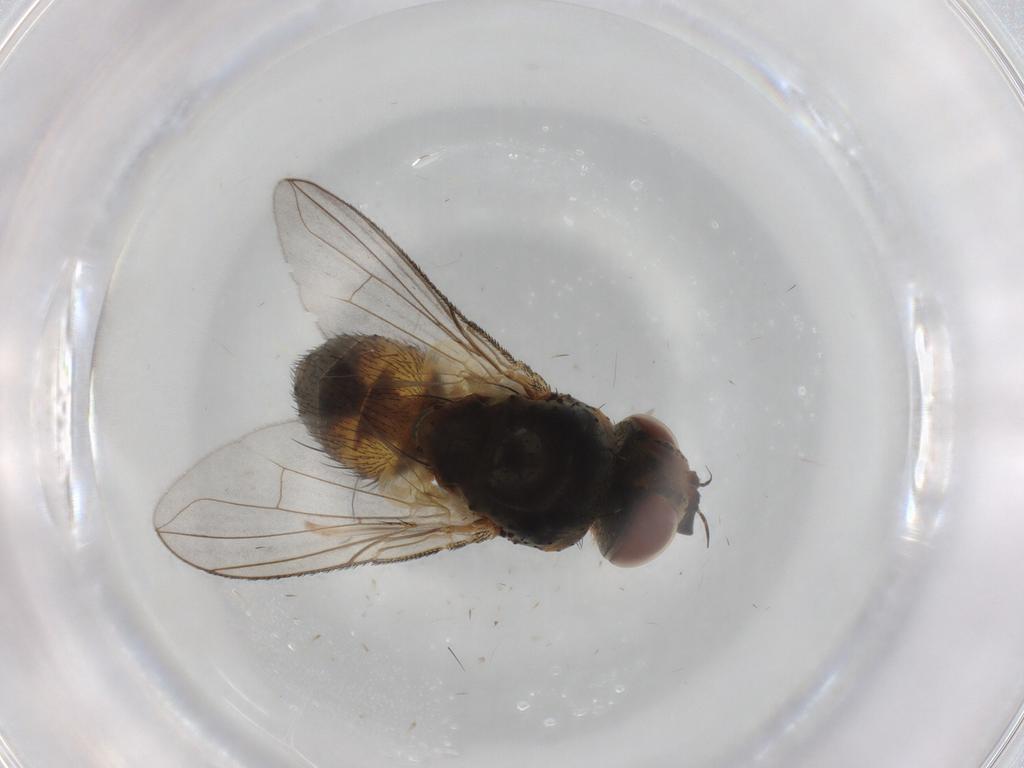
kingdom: Animalia
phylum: Arthropoda
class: Insecta
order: Diptera
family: Tachinidae
